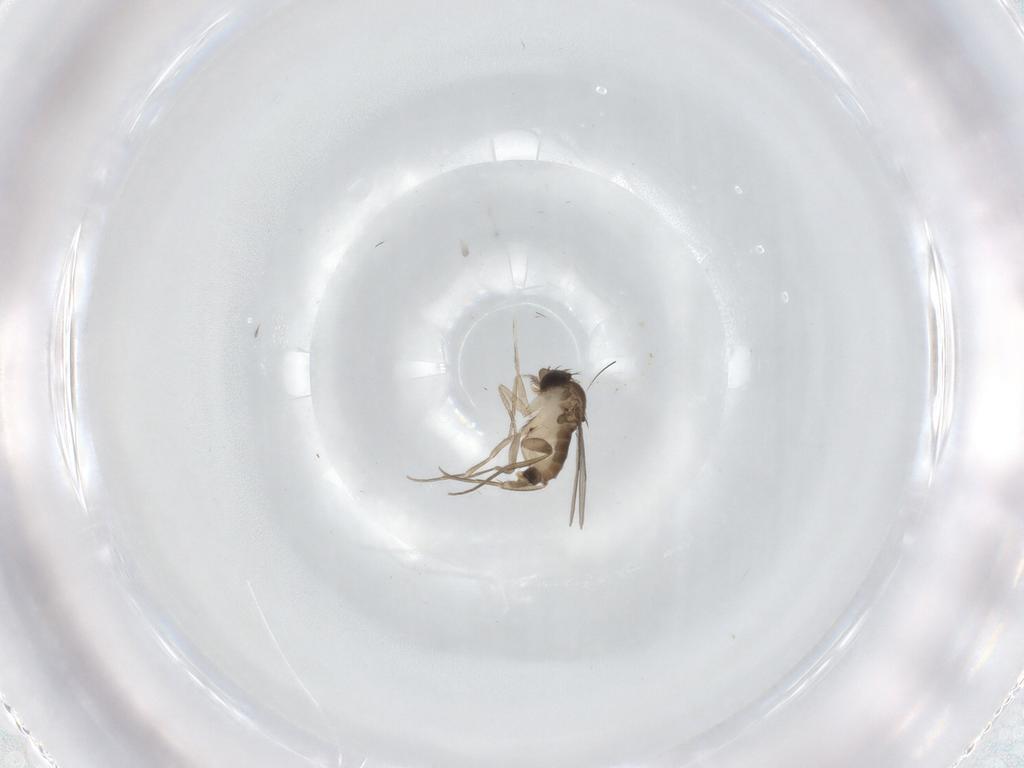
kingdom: Animalia
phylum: Arthropoda
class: Insecta
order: Diptera
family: Phoridae
